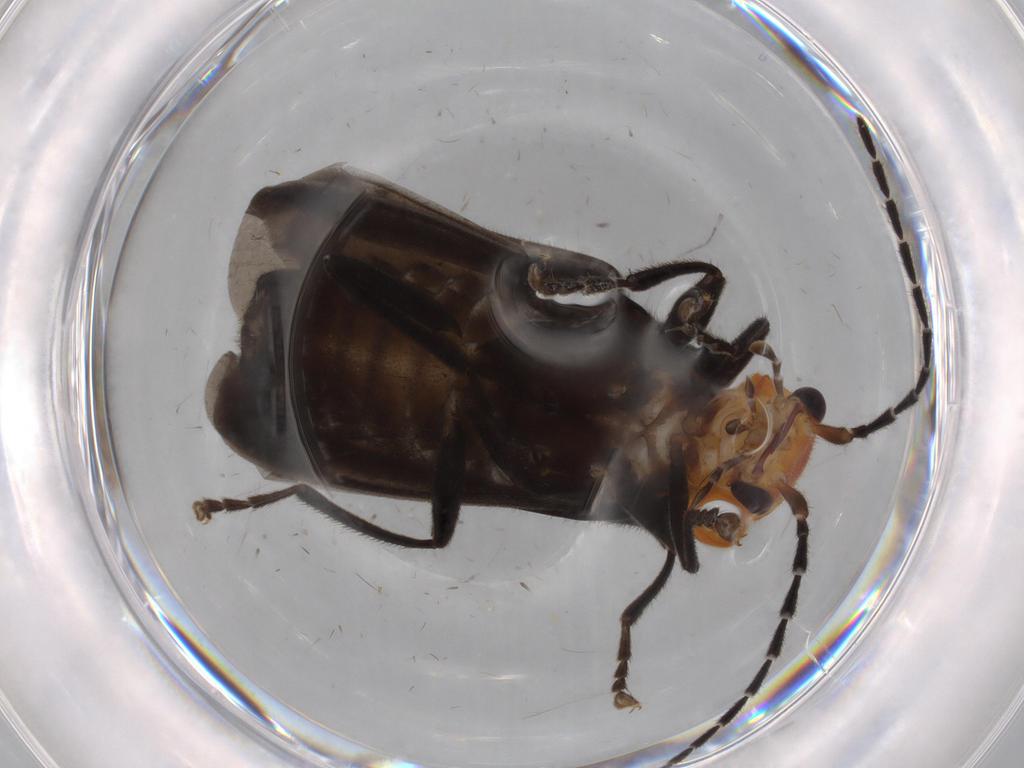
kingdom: Animalia
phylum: Arthropoda
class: Insecta
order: Coleoptera
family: Cantharidae
